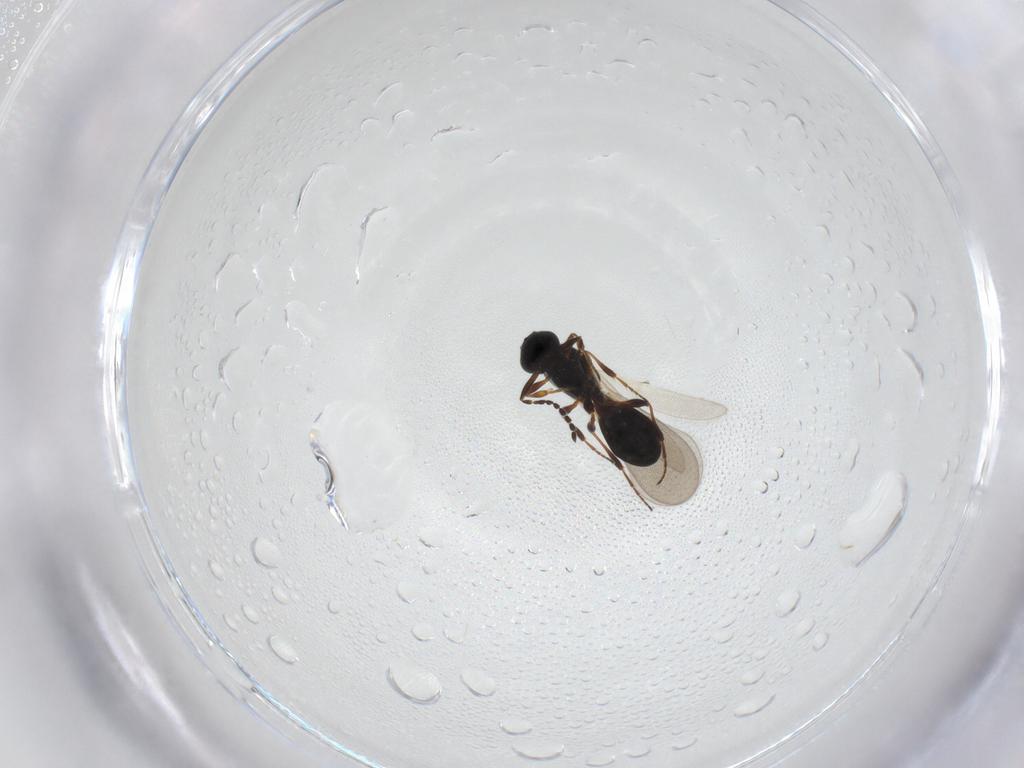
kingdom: Animalia
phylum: Arthropoda
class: Insecta
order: Hymenoptera
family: Platygastridae
